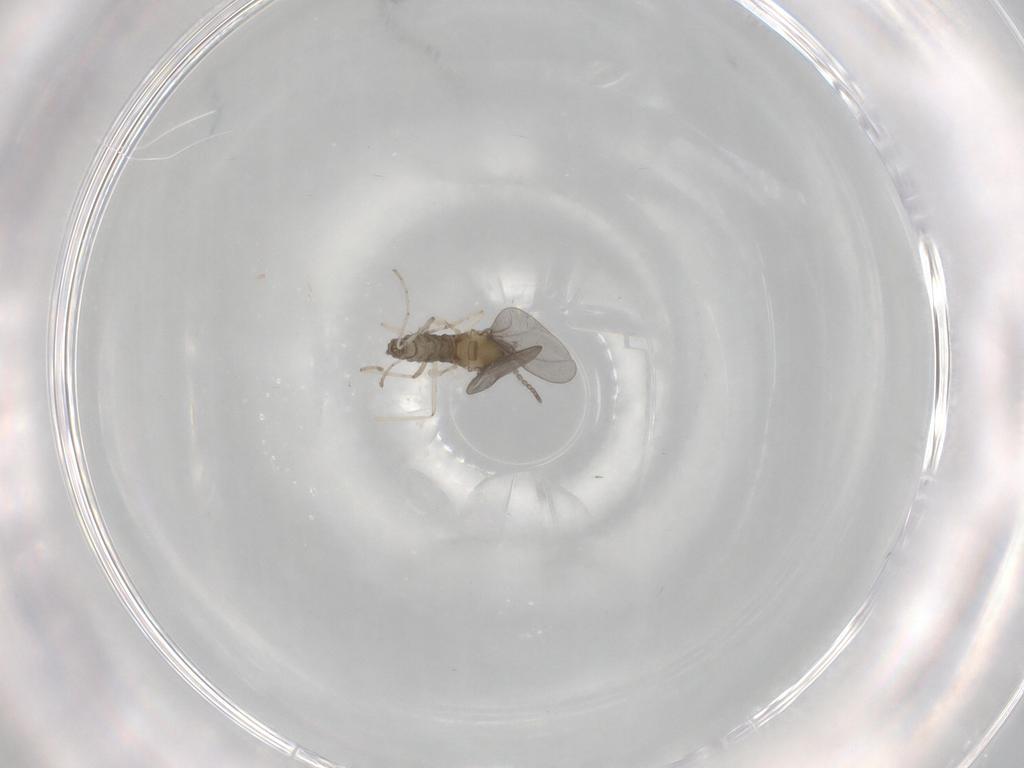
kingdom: Animalia
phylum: Arthropoda
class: Insecta
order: Diptera
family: Cecidomyiidae
